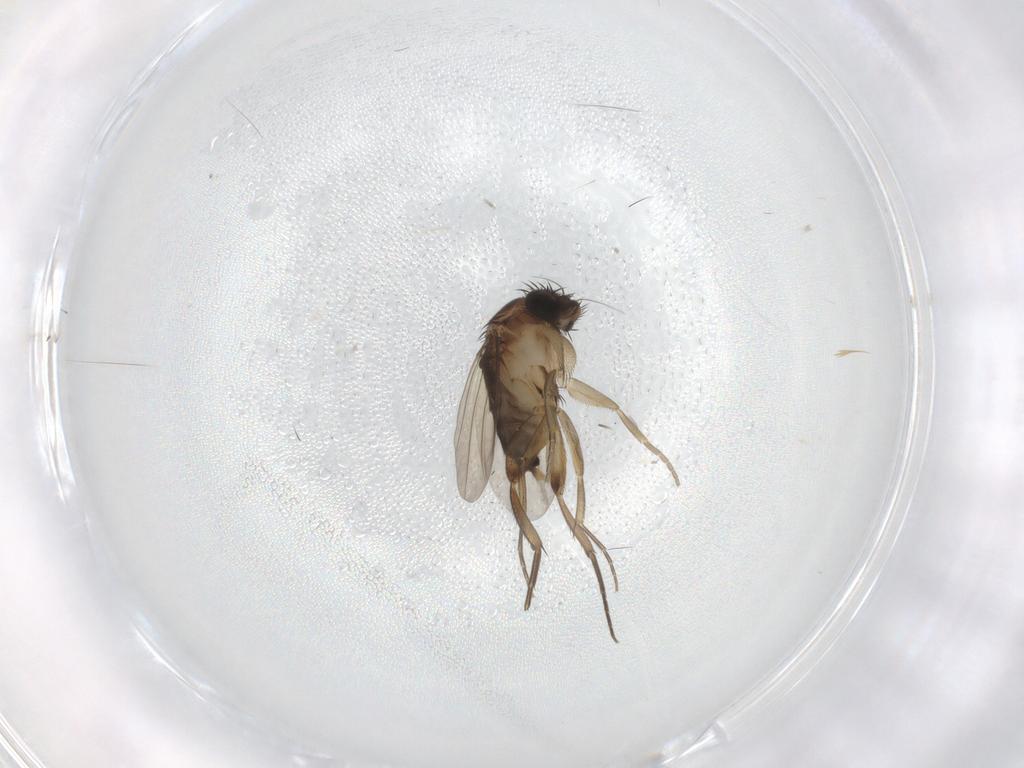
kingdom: Animalia
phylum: Arthropoda
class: Insecta
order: Diptera
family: Phoridae
